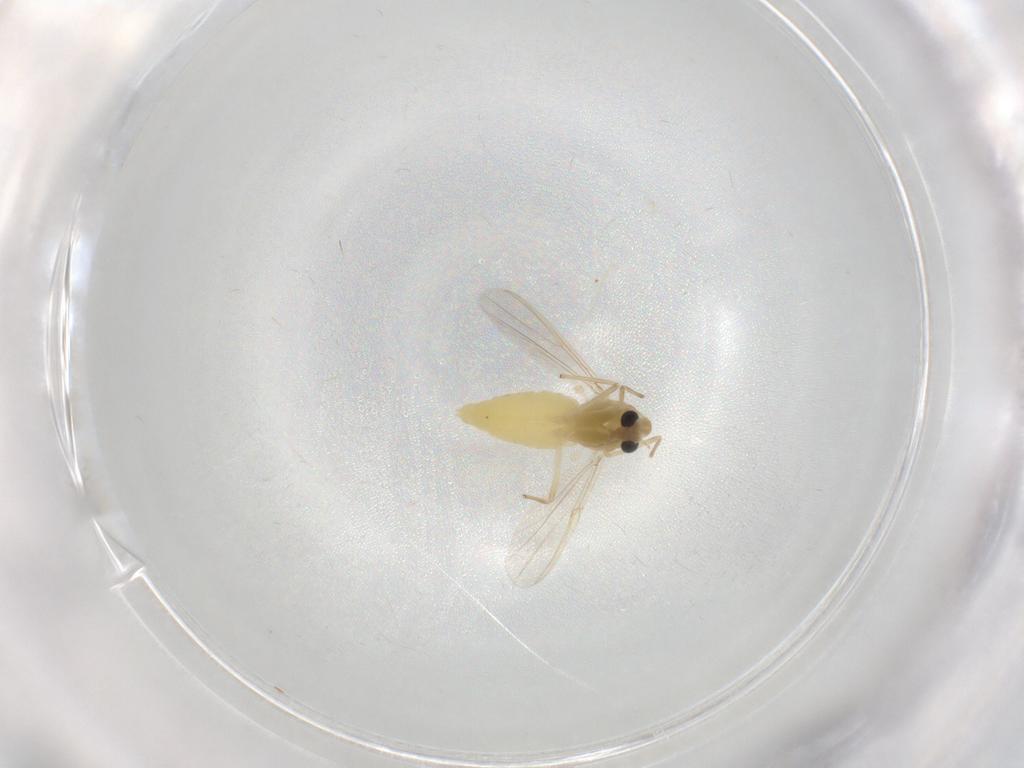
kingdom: Animalia
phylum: Arthropoda
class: Insecta
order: Diptera
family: Chironomidae
